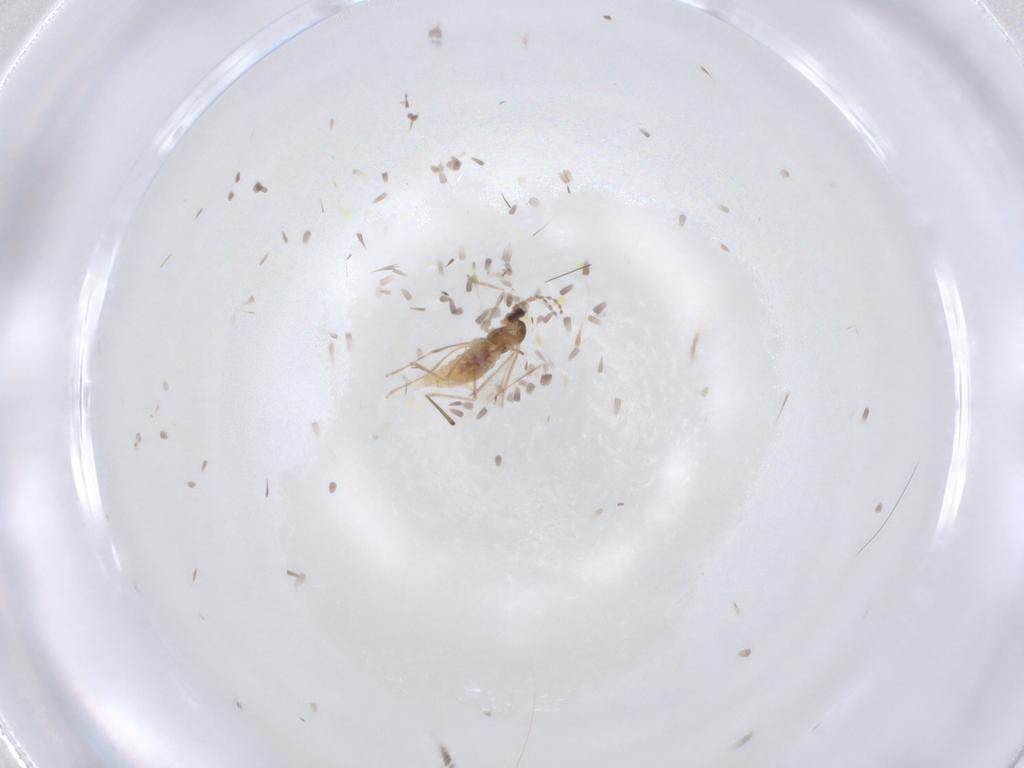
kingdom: Animalia
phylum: Arthropoda
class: Insecta
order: Diptera
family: Cecidomyiidae
